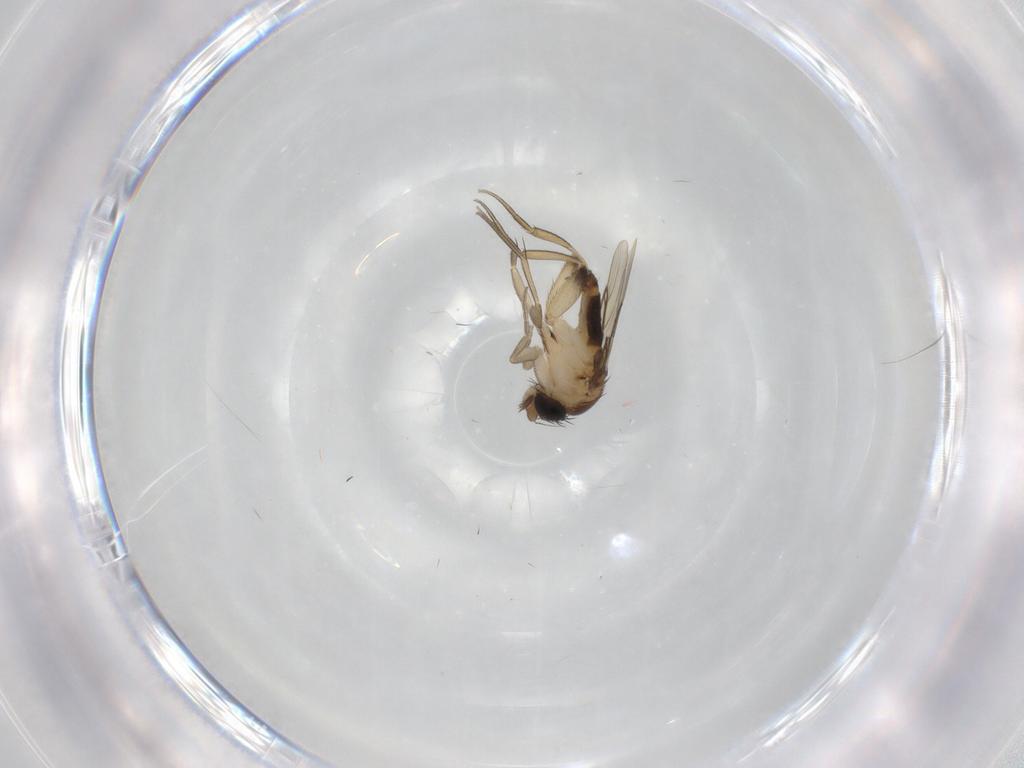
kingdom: Animalia
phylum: Arthropoda
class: Insecta
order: Diptera
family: Phoridae
